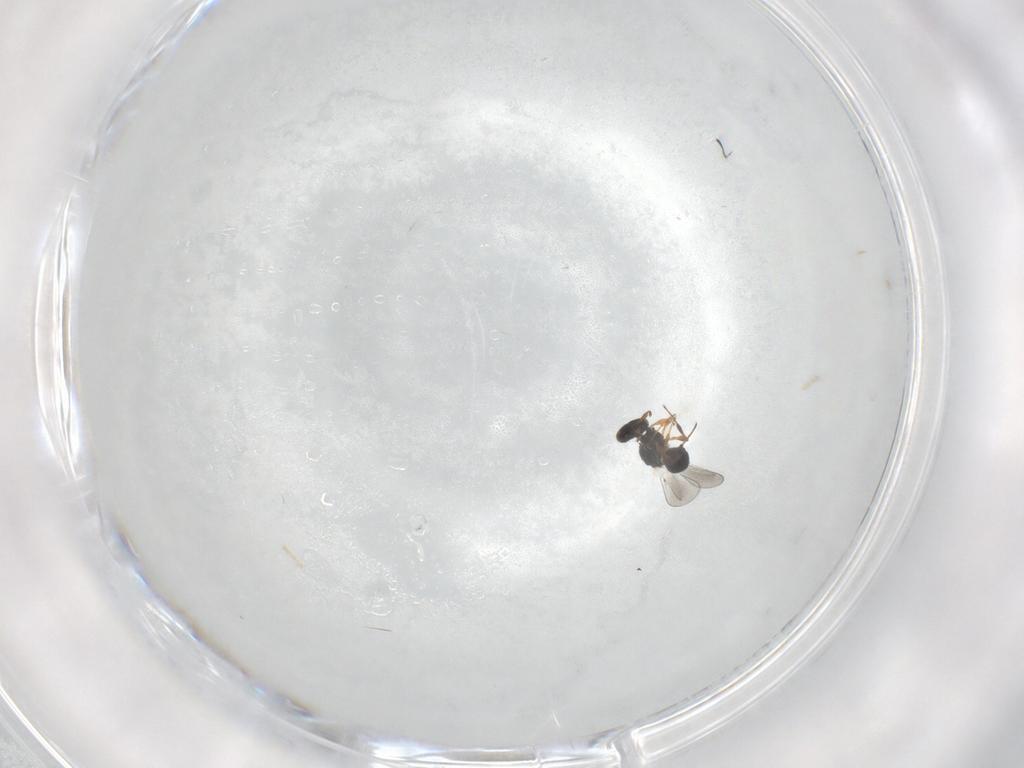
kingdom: Animalia
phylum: Arthropoda
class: Insecta
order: Hymenoptera
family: Platygastridae
